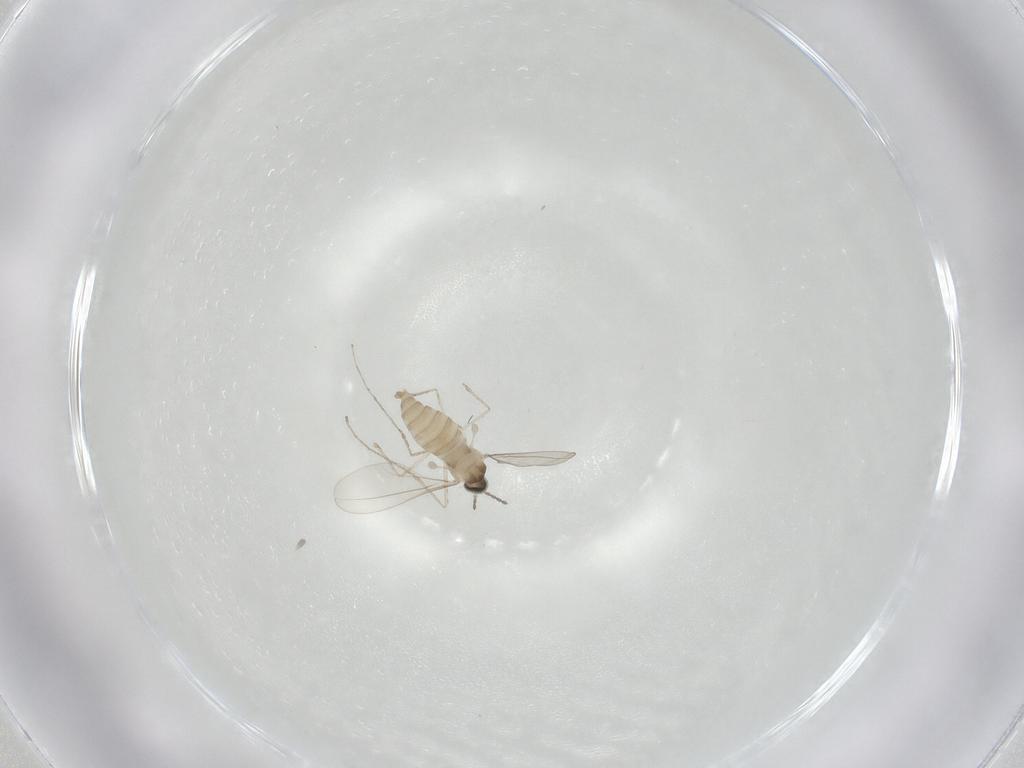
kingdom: Animalia
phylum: Arthropoda
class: Insecta
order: Diptera
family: Cecidomyiidae
